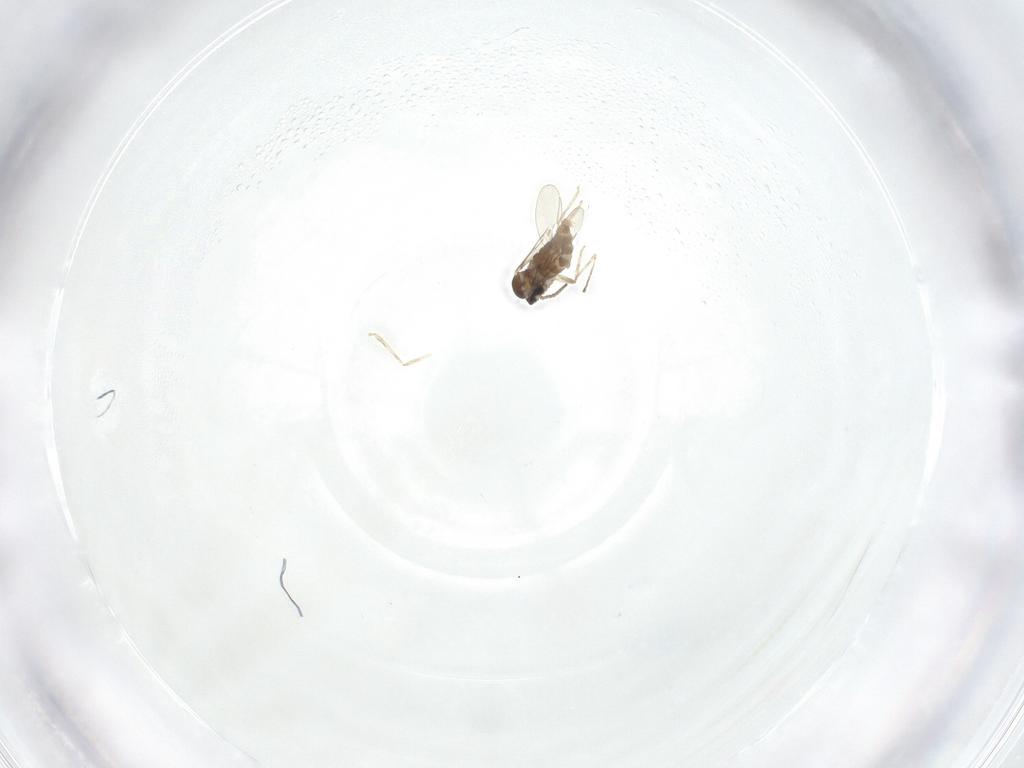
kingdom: Animalia
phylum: Arthropoda
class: Insecta
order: Diptera
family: Cecidomyiidae
